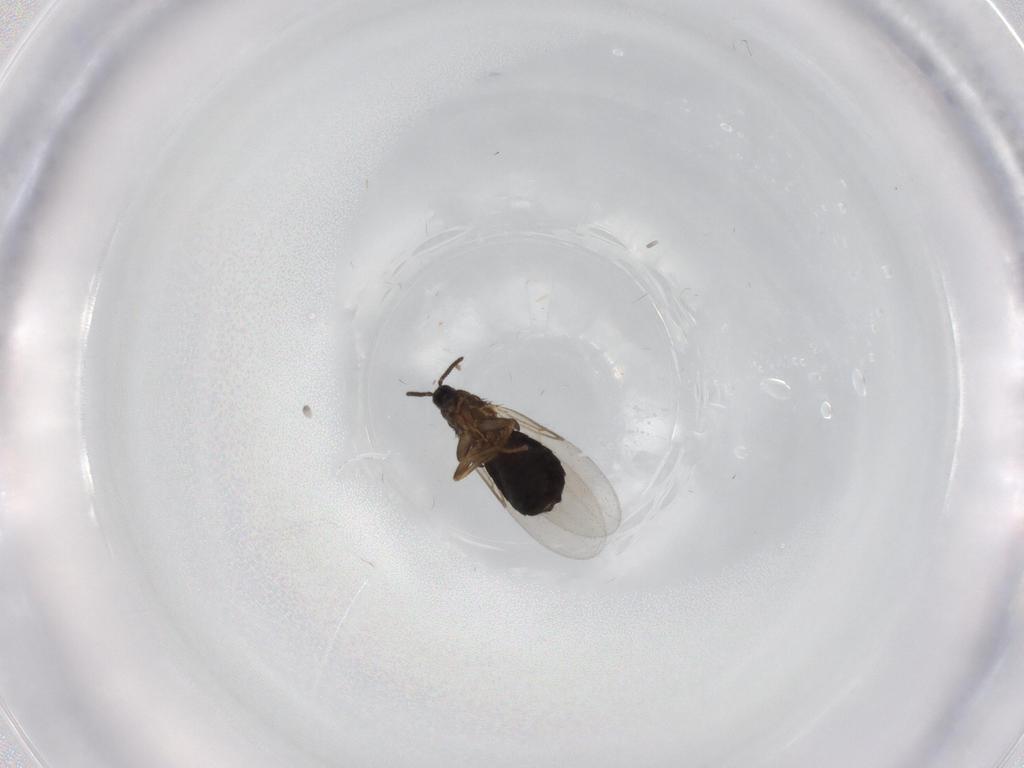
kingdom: Animalia
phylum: Arthropoda
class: Insecta
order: Diptera
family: Scatopsidae
